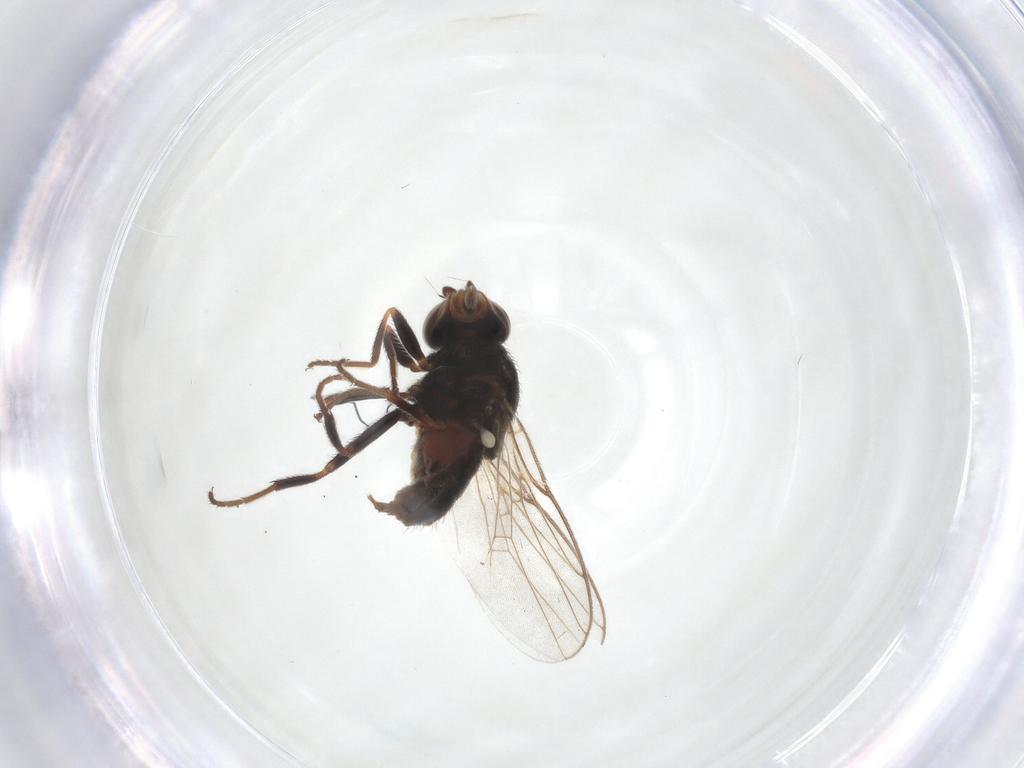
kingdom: Animalia
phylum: Arthropoda
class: Insecta
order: Diptera
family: Chloropidae
